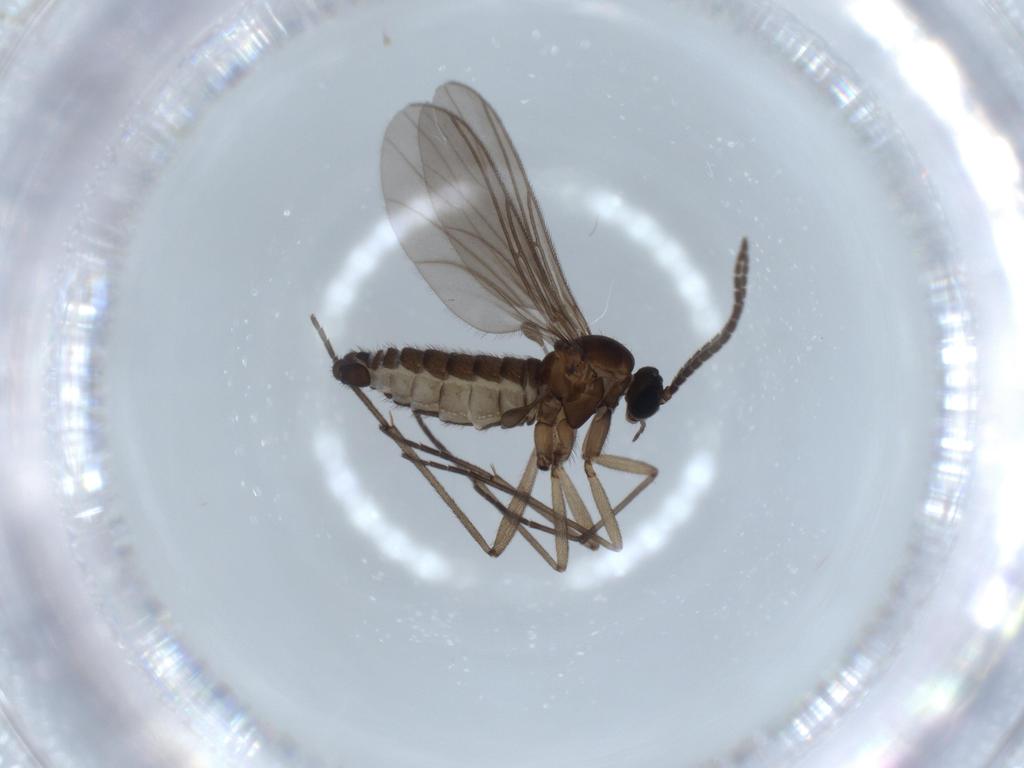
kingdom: Animalia
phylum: Arthropoda
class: Insecta
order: Diptera
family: Sciaridae
